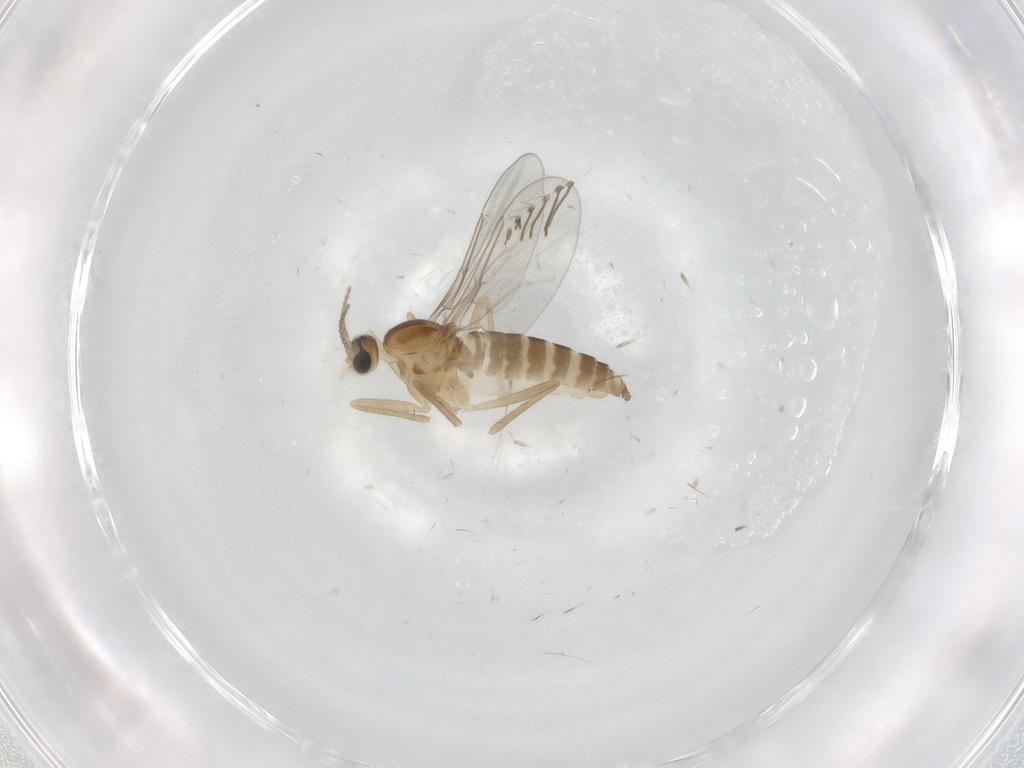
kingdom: Animalia
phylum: Arthropoda
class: Insecta
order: Diptera
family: Cecidomyiidae
